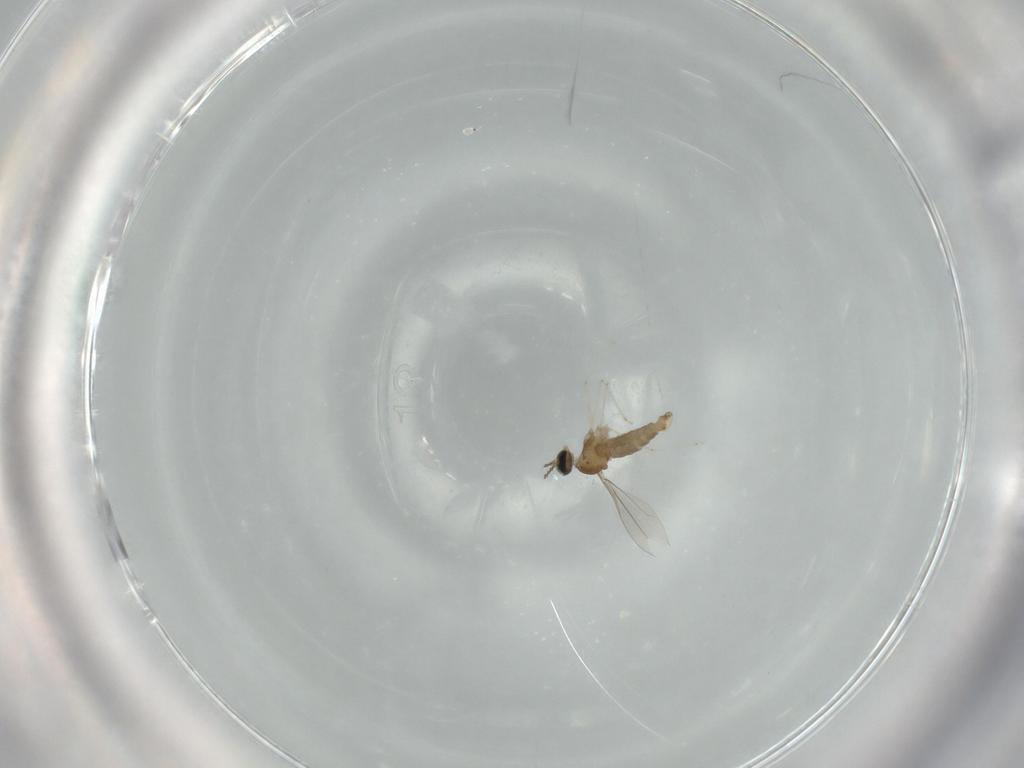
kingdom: Animalia
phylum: Arthropoda
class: Insecta
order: Diptera
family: Cecidomyiidae
